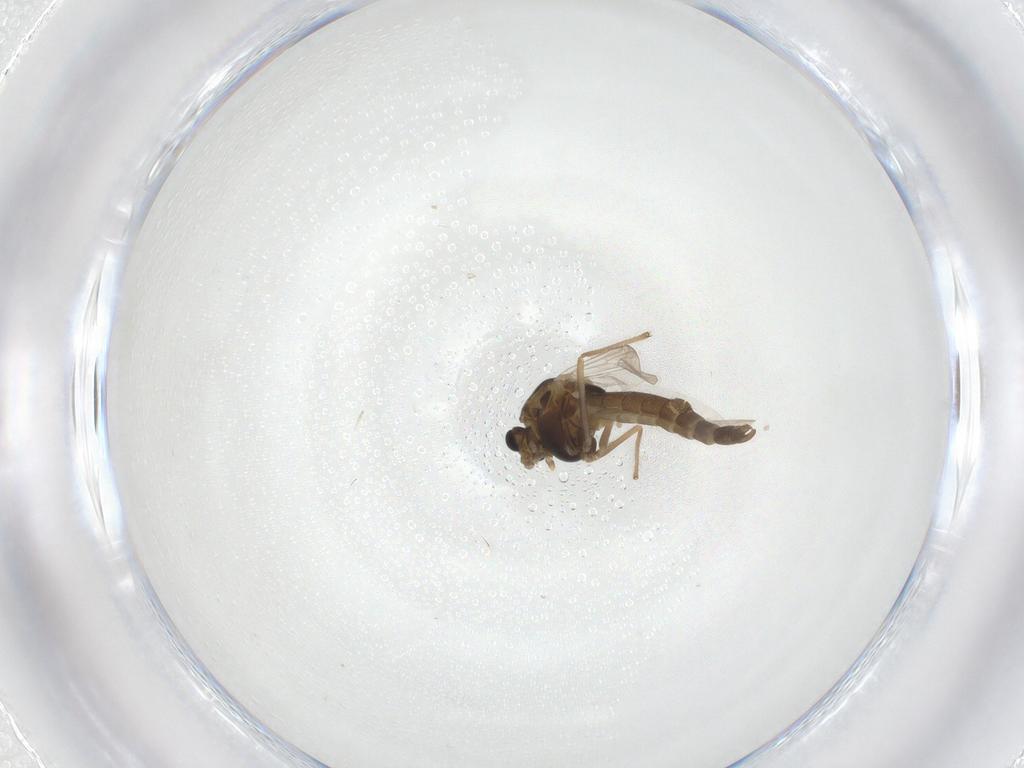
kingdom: Animalia
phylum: Arthropoda
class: Insecta
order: Diptera
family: Chironomidae
